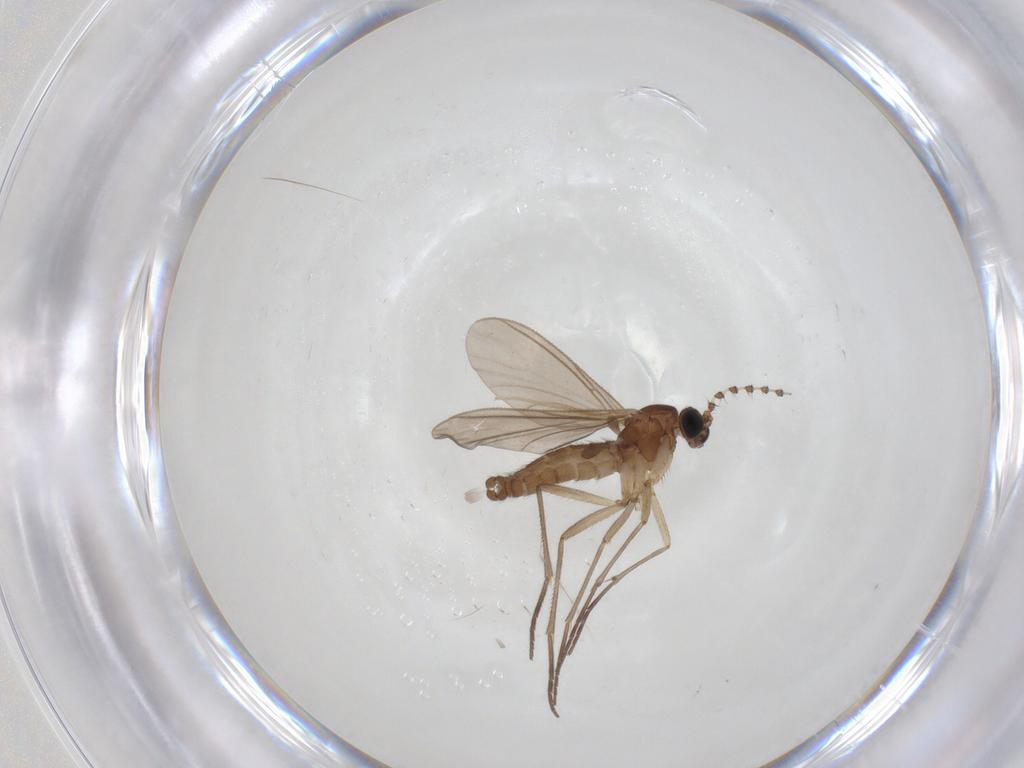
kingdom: Animalia
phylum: Arthropoda
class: Insecta
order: Diptera
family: Sciaridae
